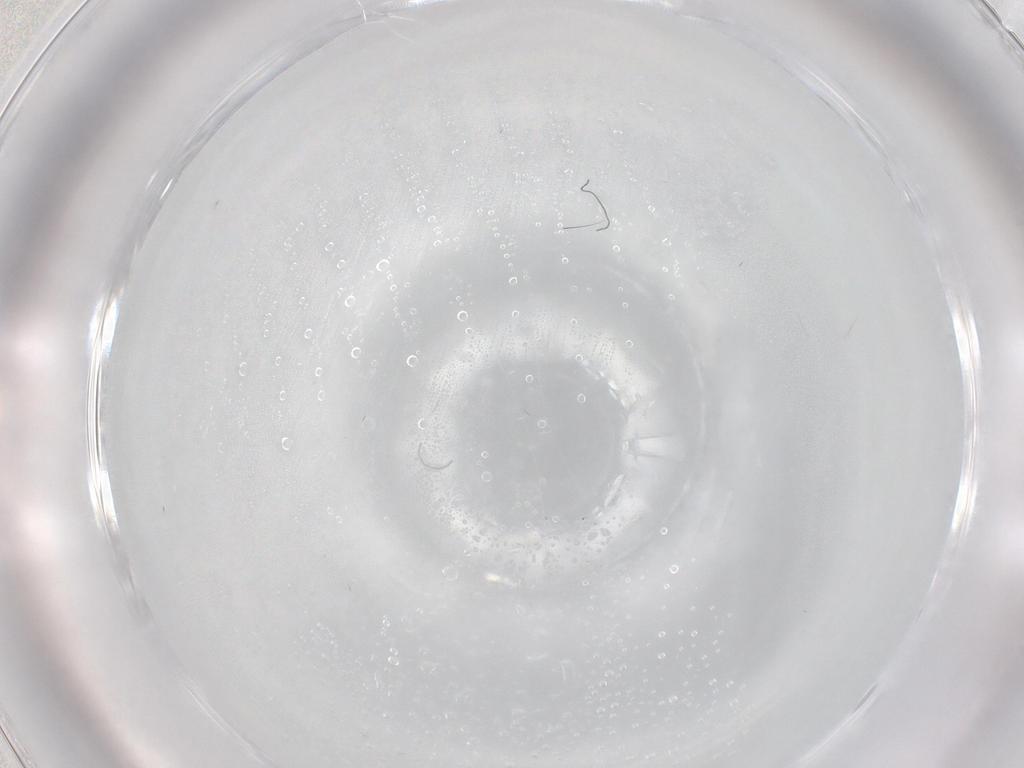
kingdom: Animalia
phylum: Arthropoda
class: Insecta
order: Diptera
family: Cecidomyiidae
